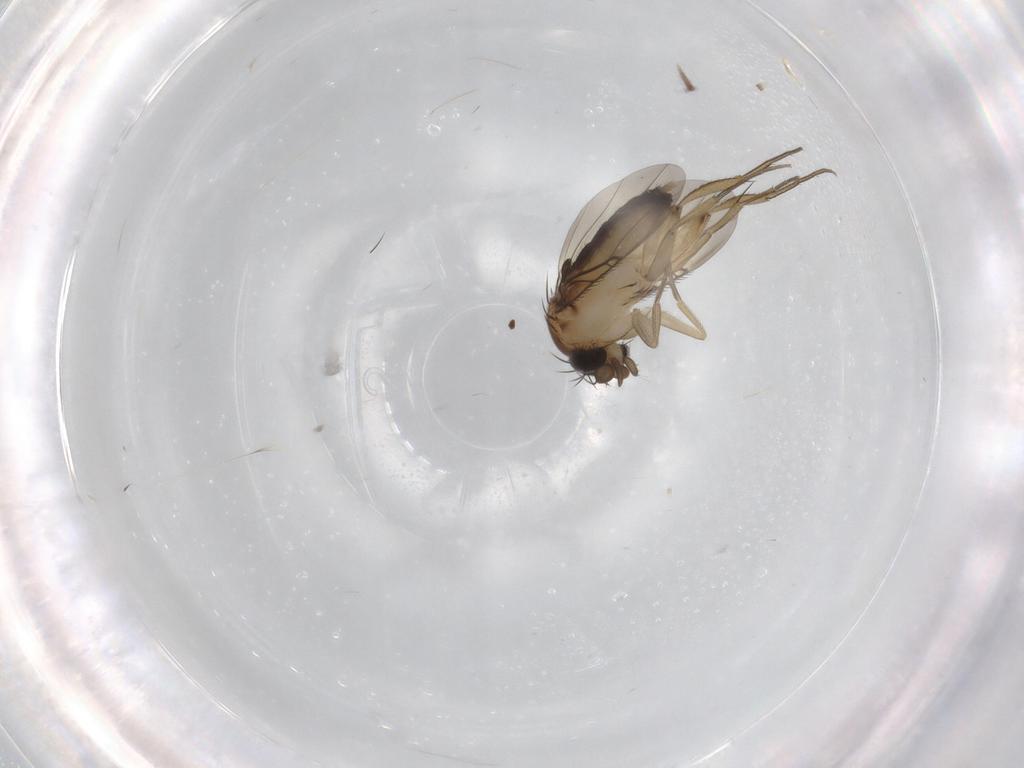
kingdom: Animalia
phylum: Arthropoda
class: Insecta
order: Diptera
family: Phoridae
